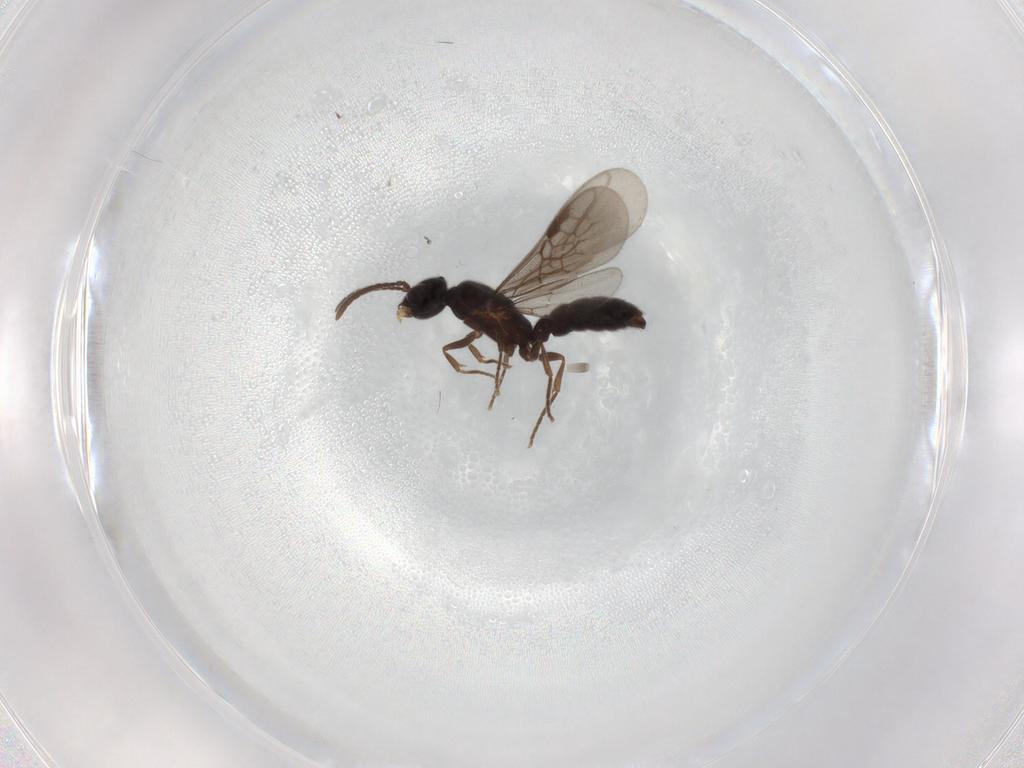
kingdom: Animalia
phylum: Arthropoda
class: Insecta
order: Hymenoptera
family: Formicidae
